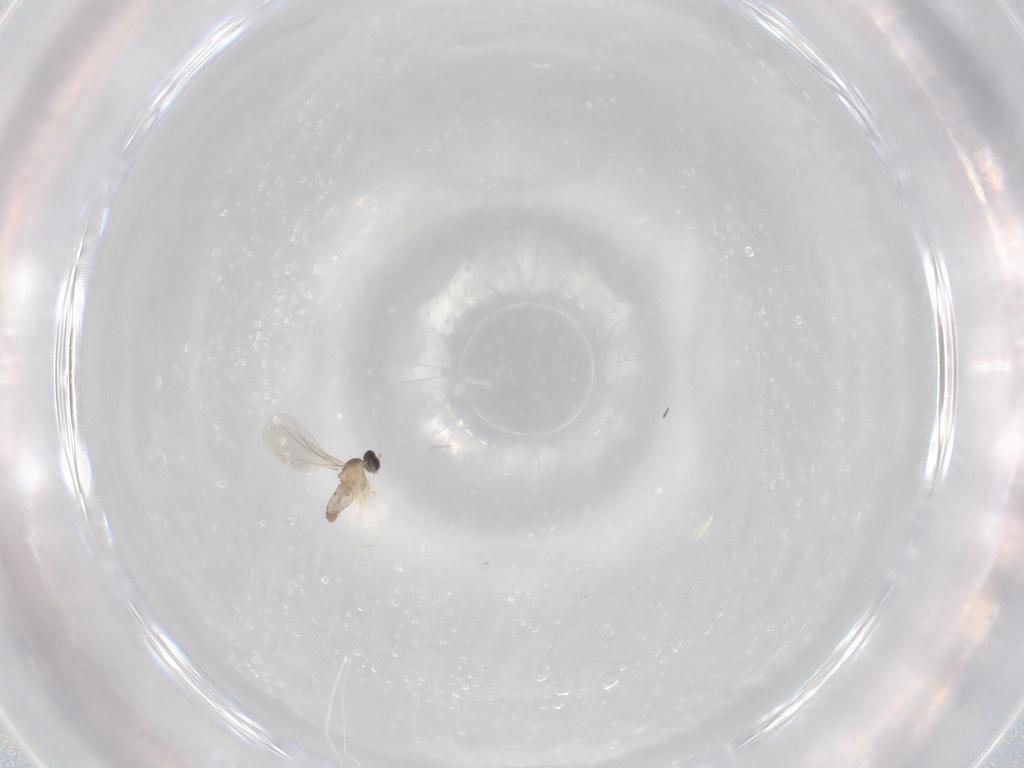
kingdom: Animalia
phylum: Arthropoda
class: Insecta
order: Diptera
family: Cecidomyiidae
